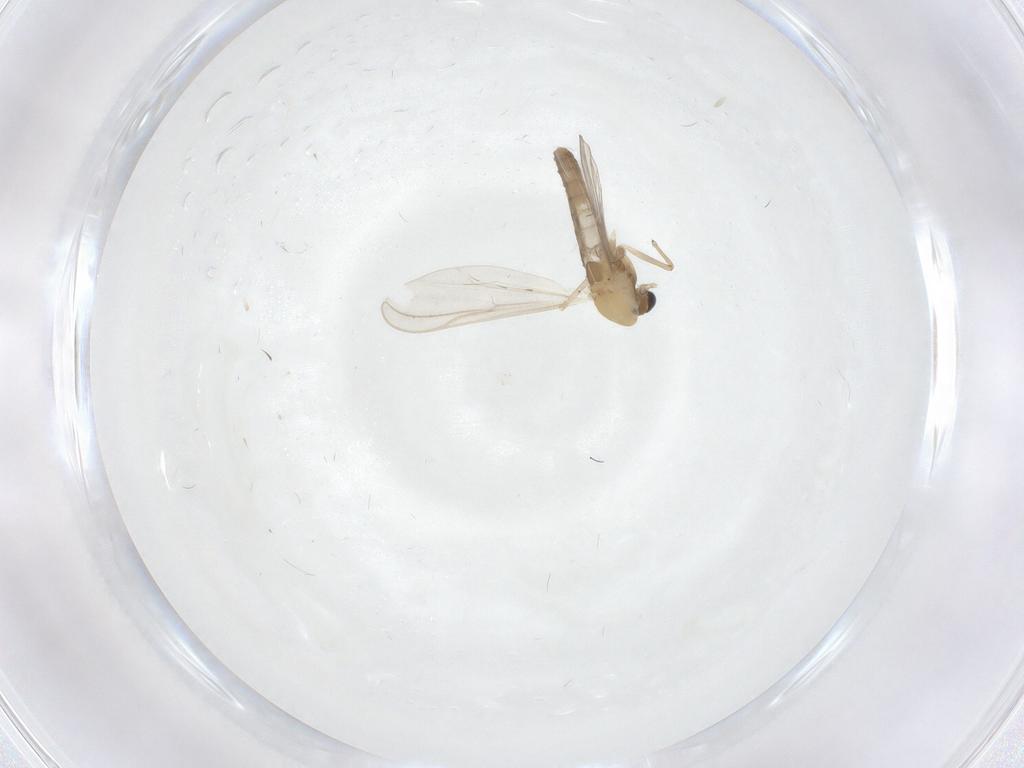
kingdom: Animalia
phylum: Arthropoda
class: Insecta
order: Diptera
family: Chironomidae
